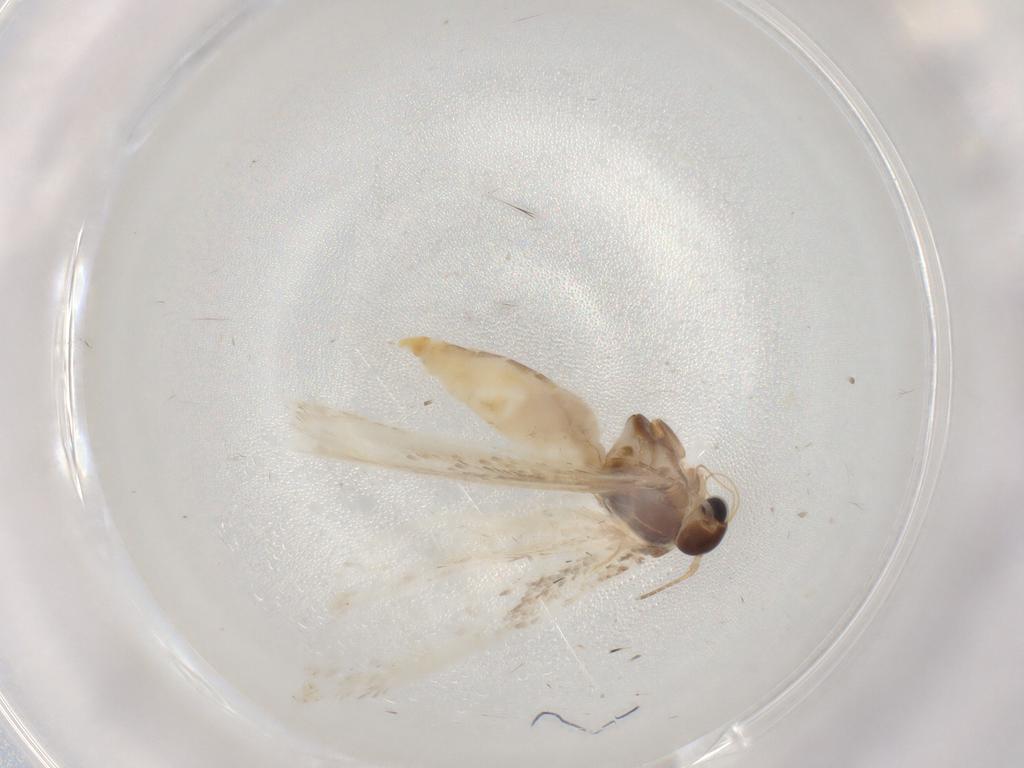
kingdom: Animalia
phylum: Arthropoda
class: Insecta
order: Lepidoptera
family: Gelechiidae
